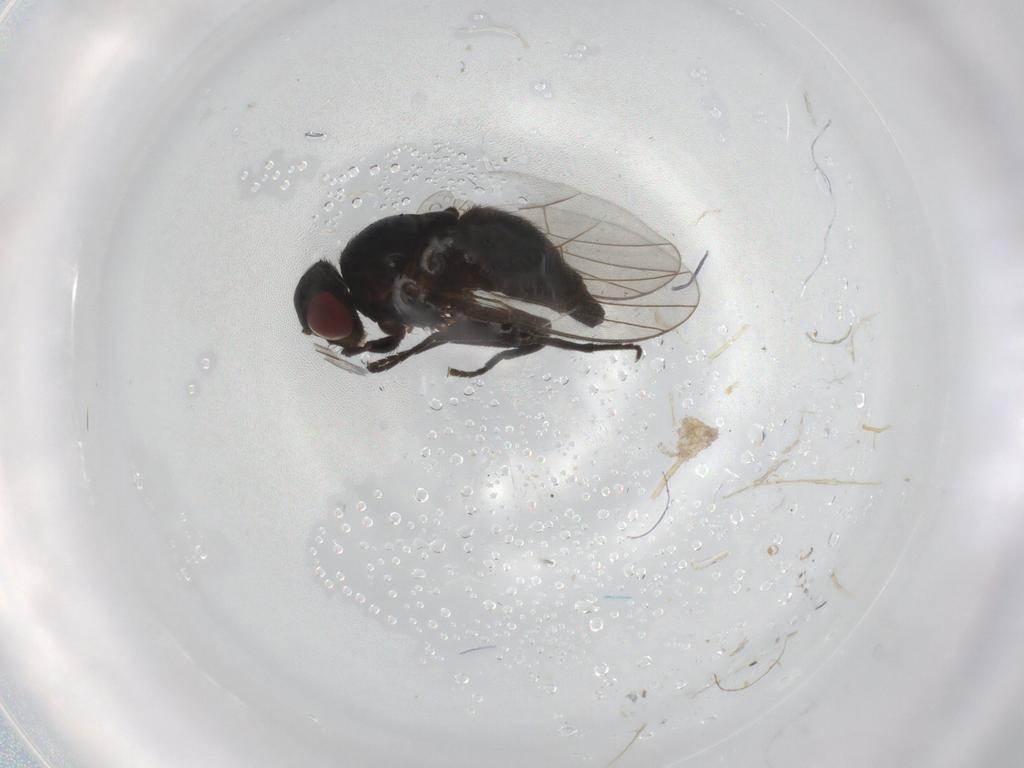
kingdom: Animalia
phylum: Arthropoda
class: Insecta
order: Diptera
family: Agromyzidae
